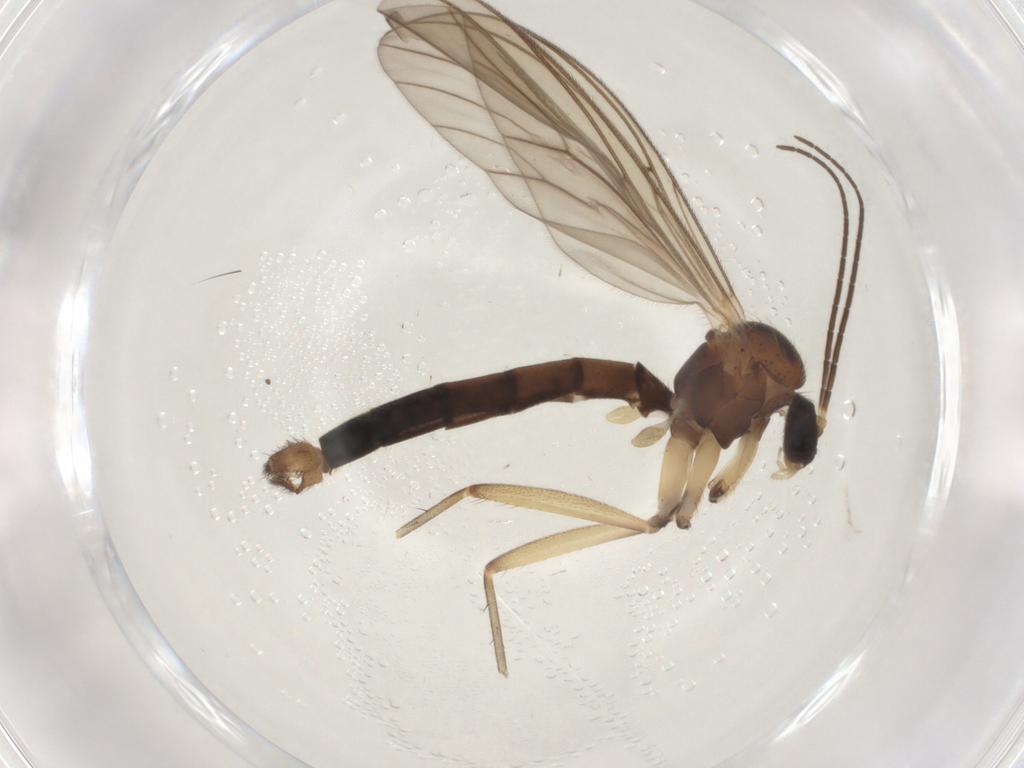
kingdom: Animalia
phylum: Arthropoda
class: Insecta
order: Diptera
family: Mycetophilidae
